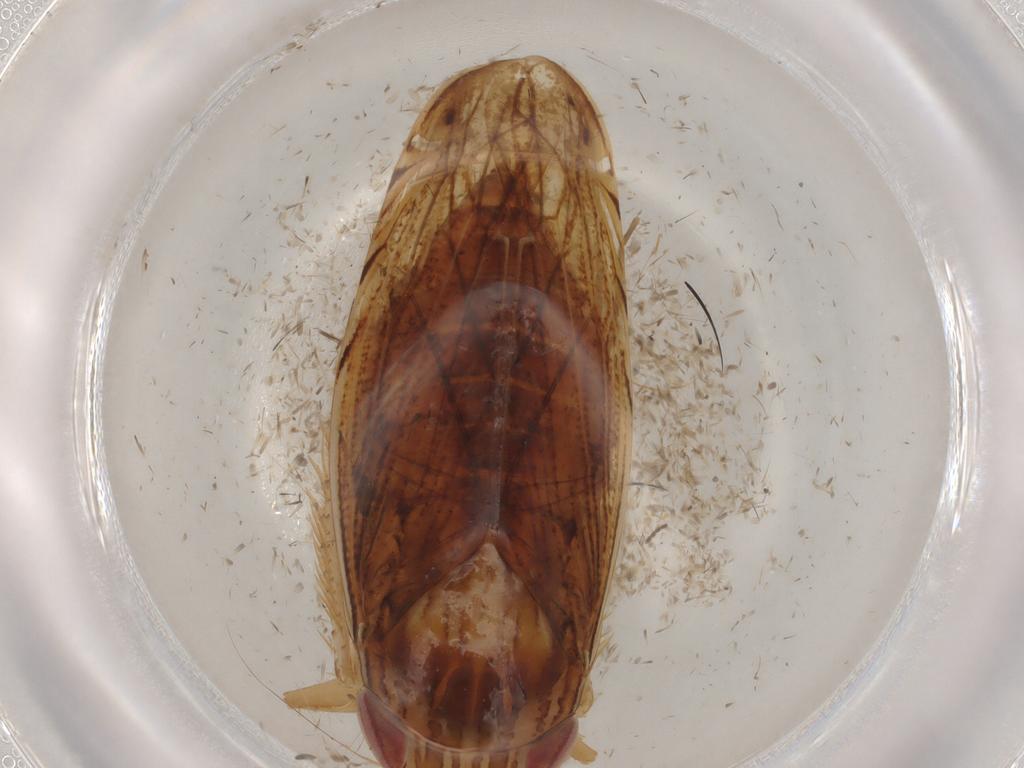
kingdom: Animalia
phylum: Arthropoda
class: Insecta
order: Hemiptera
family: Cicadellidae
